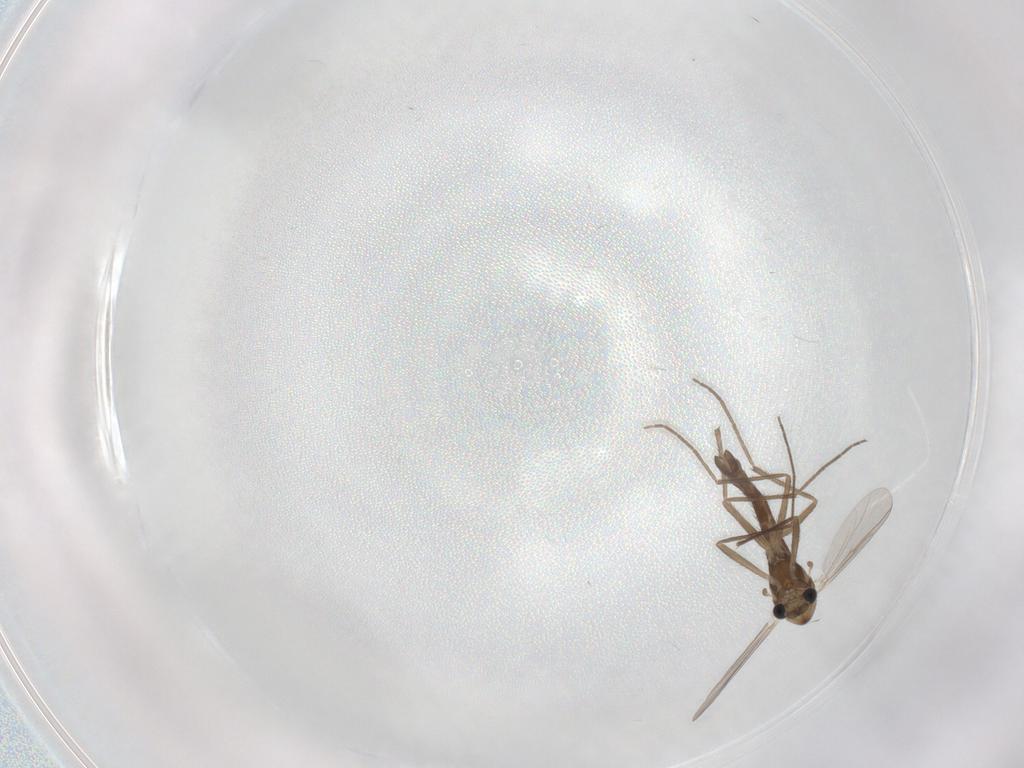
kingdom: Animalia
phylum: Arthropoda
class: Insecta
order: Diptera
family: Chironomidae
